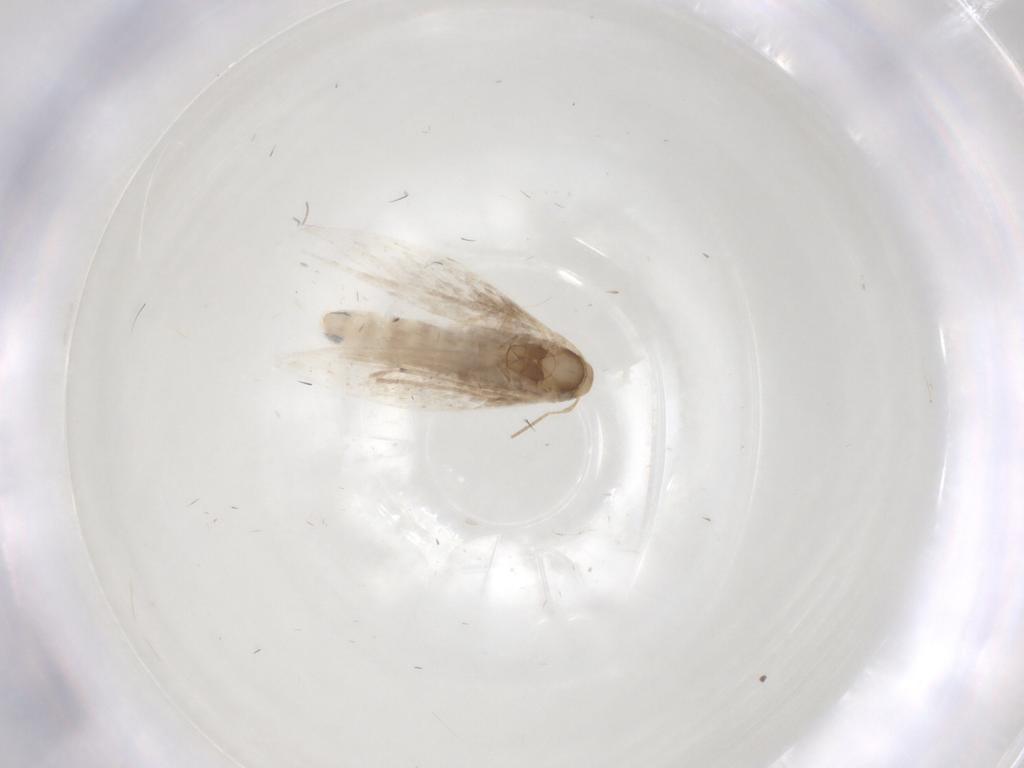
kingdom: Animalia
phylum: Arthropoda
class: Insecta
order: Lepidoptera
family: Gracillariidae
